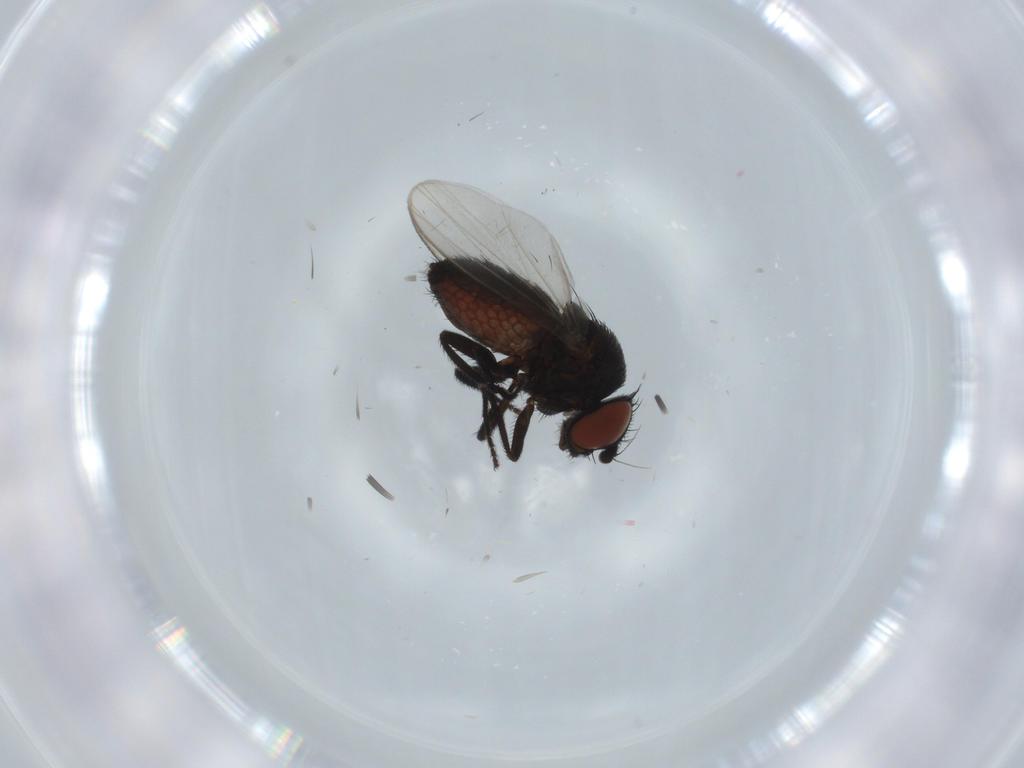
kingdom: Animalia
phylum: Arthropoda
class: Insecta
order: Diptera
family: Milichiidae
